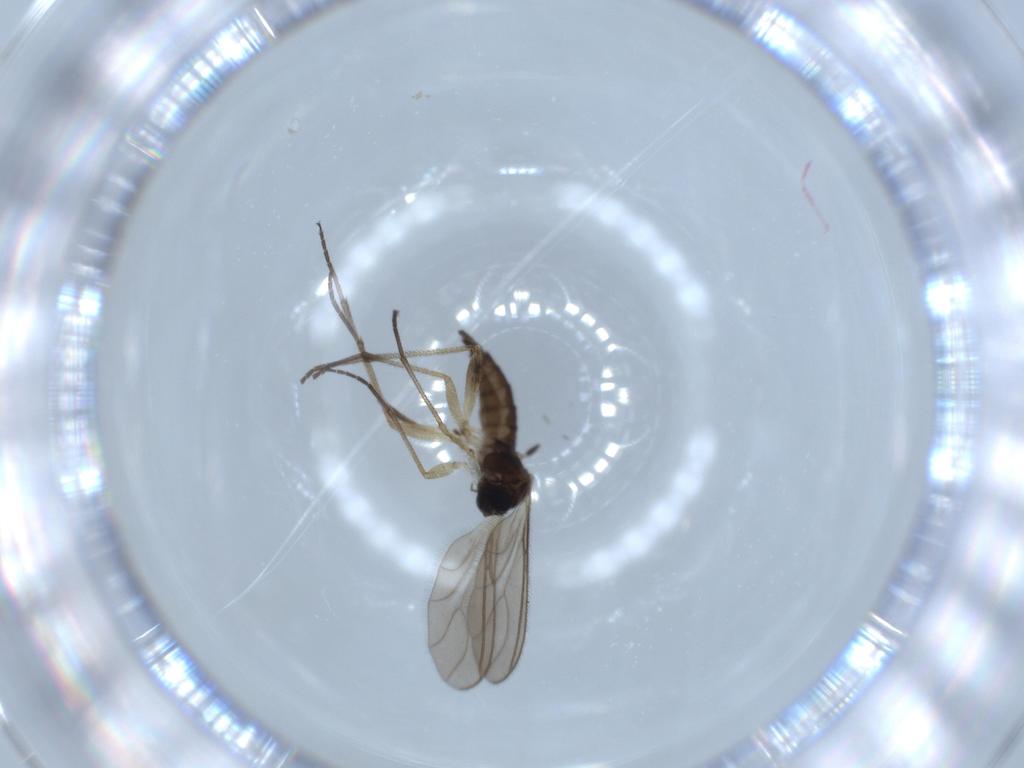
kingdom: Animalia
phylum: Arthropoda
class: Insecta
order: Diptera
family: Sciaridae
